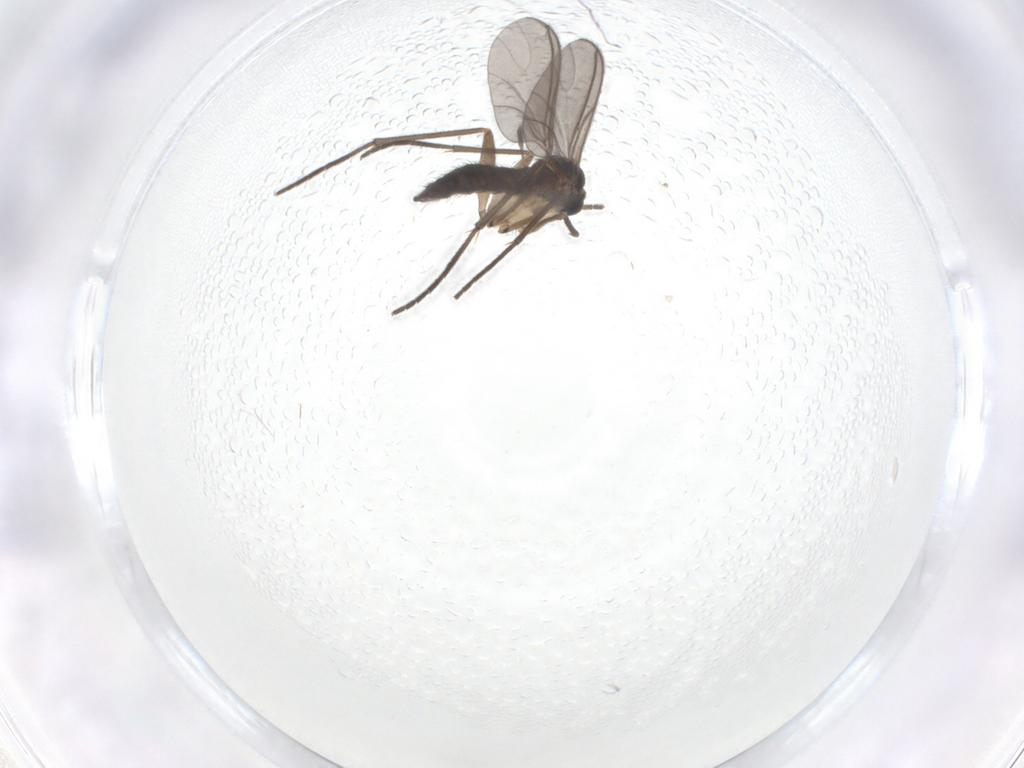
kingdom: Animalia
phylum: Arthropoda
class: Insecta
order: Diptera
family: Sciaridae
